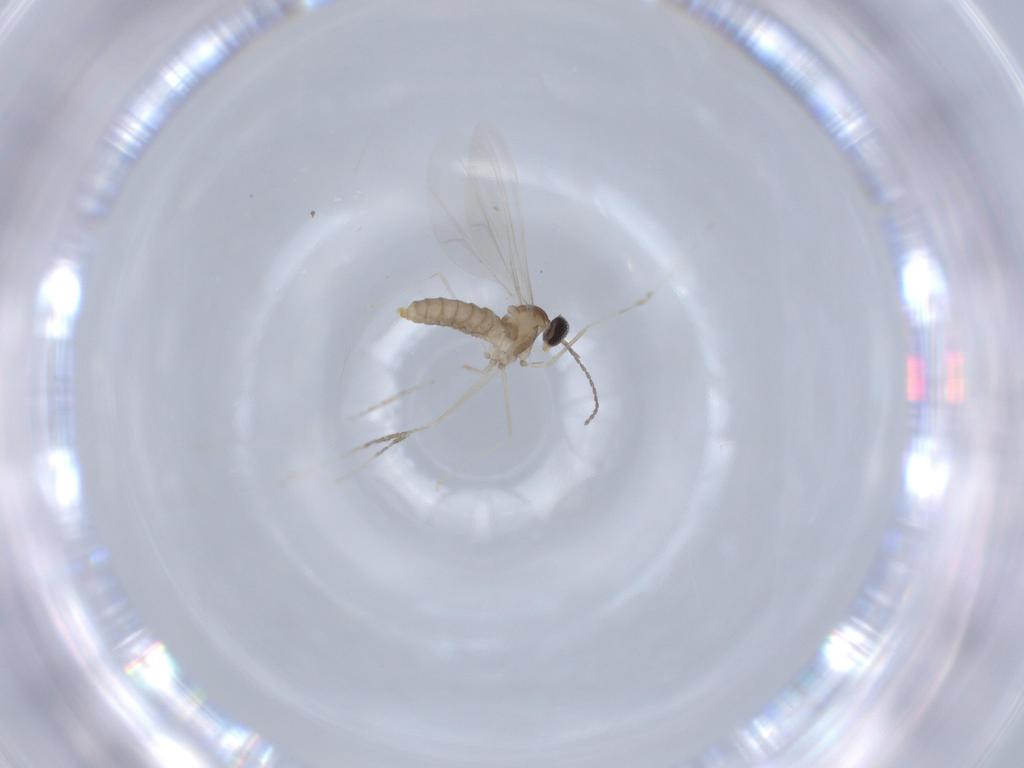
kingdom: Animalia
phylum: Arthropoda
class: Insecta
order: Diptera
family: Cecidomyiidae
